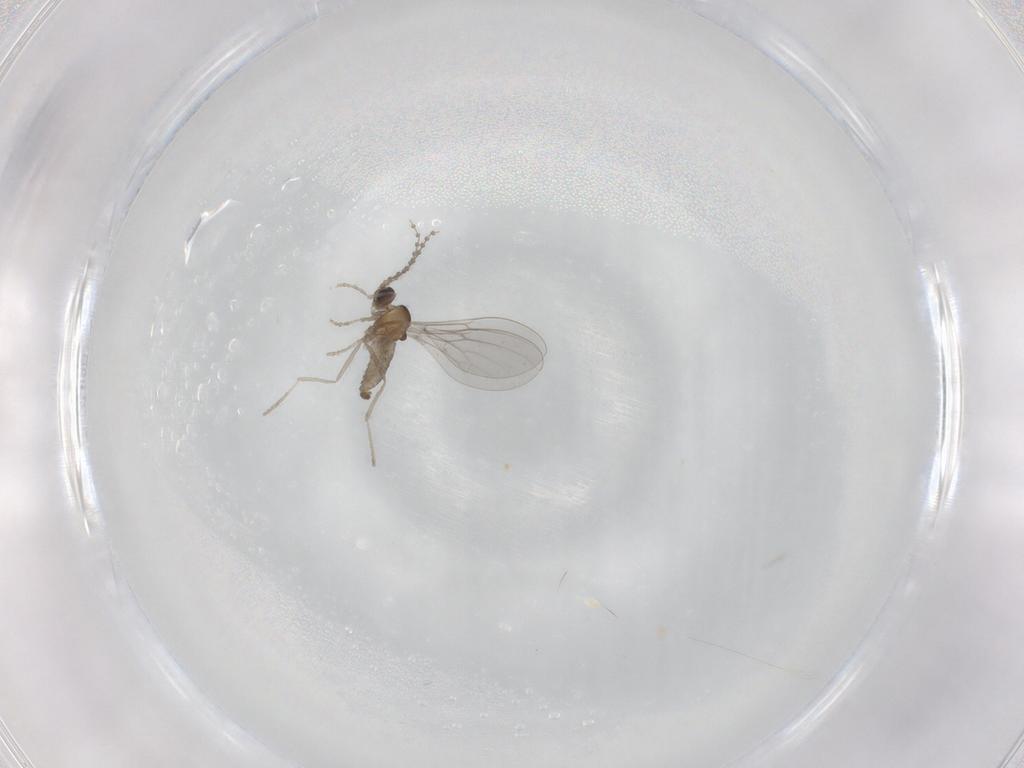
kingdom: Animalia
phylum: Arthropoda
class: Insecta
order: Diptera
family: Cecidomyiidae
